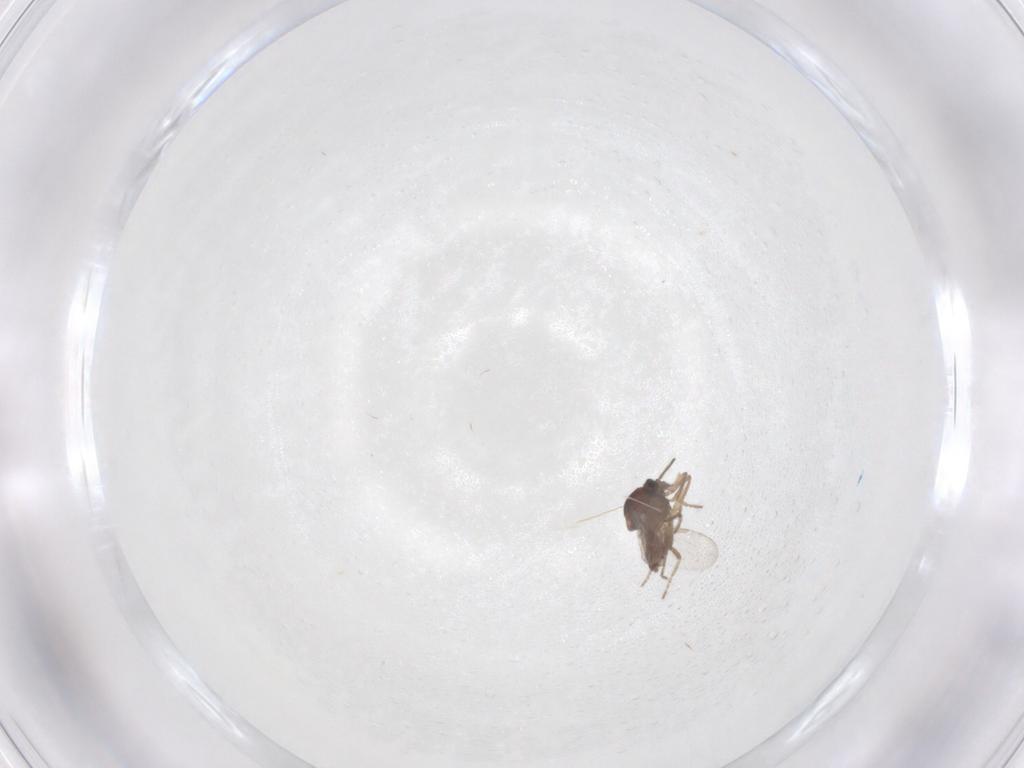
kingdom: Animalia
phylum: Arthropoda
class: Insecta
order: Diptera
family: Ceratopogonidae
